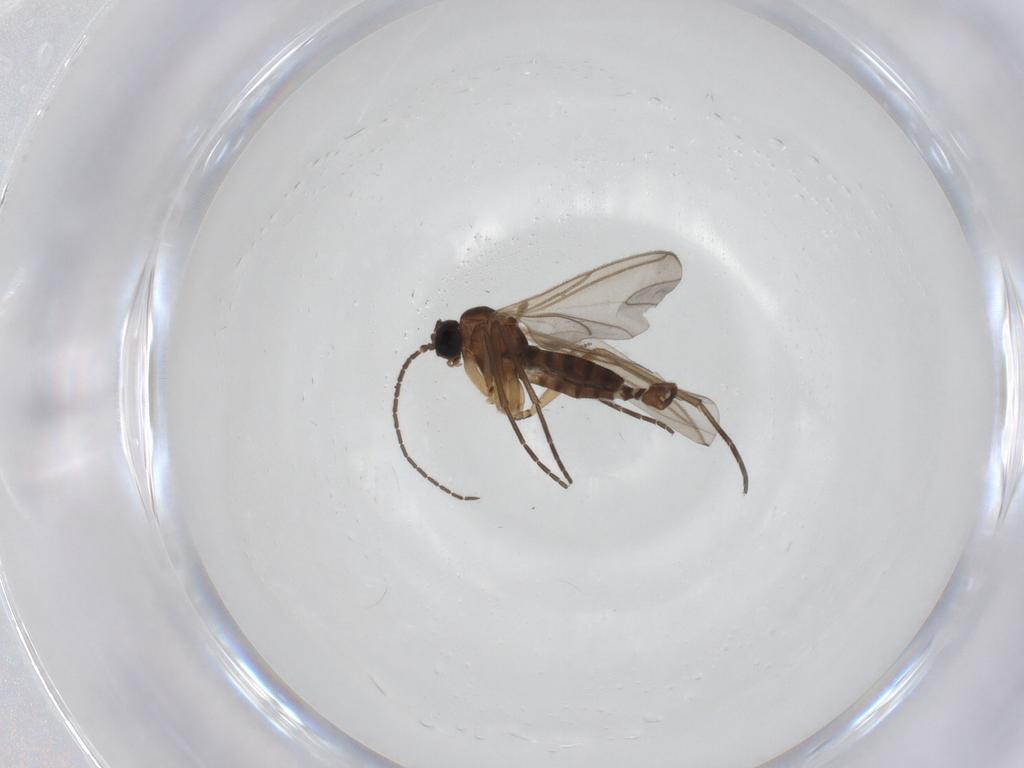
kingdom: Animalia
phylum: Arthropoda
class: Insecta
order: Diptera
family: Sciaridae
